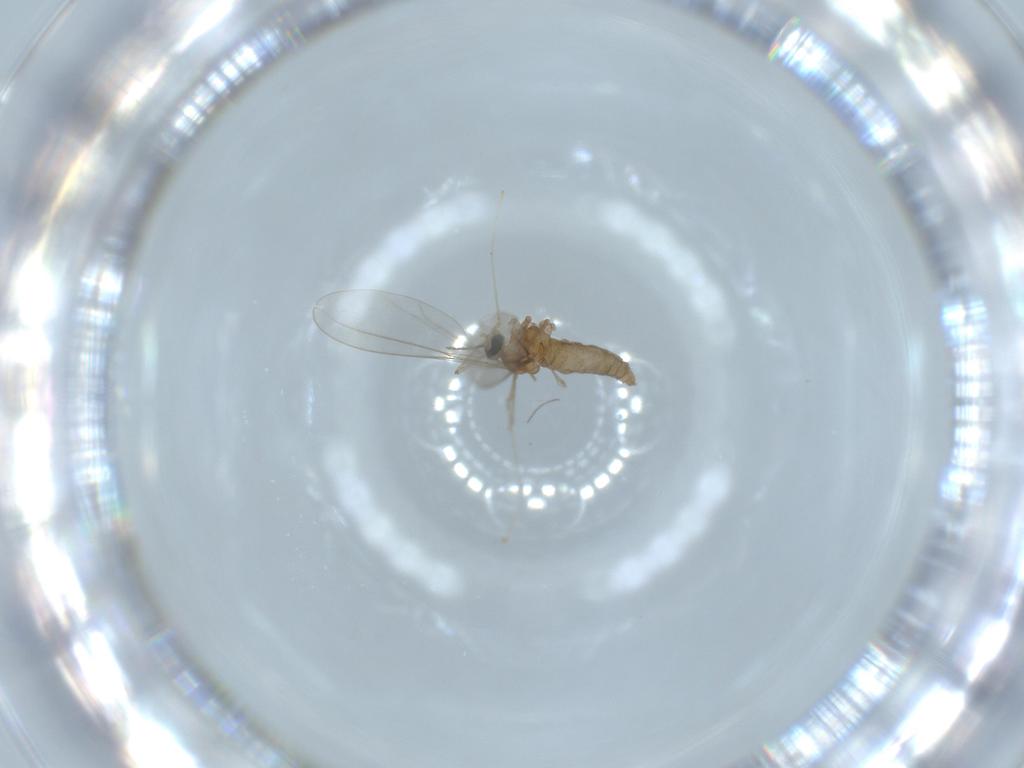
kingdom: Animalia
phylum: Arthropoda
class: Insecta
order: Diptera
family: Cecidomyiidae
